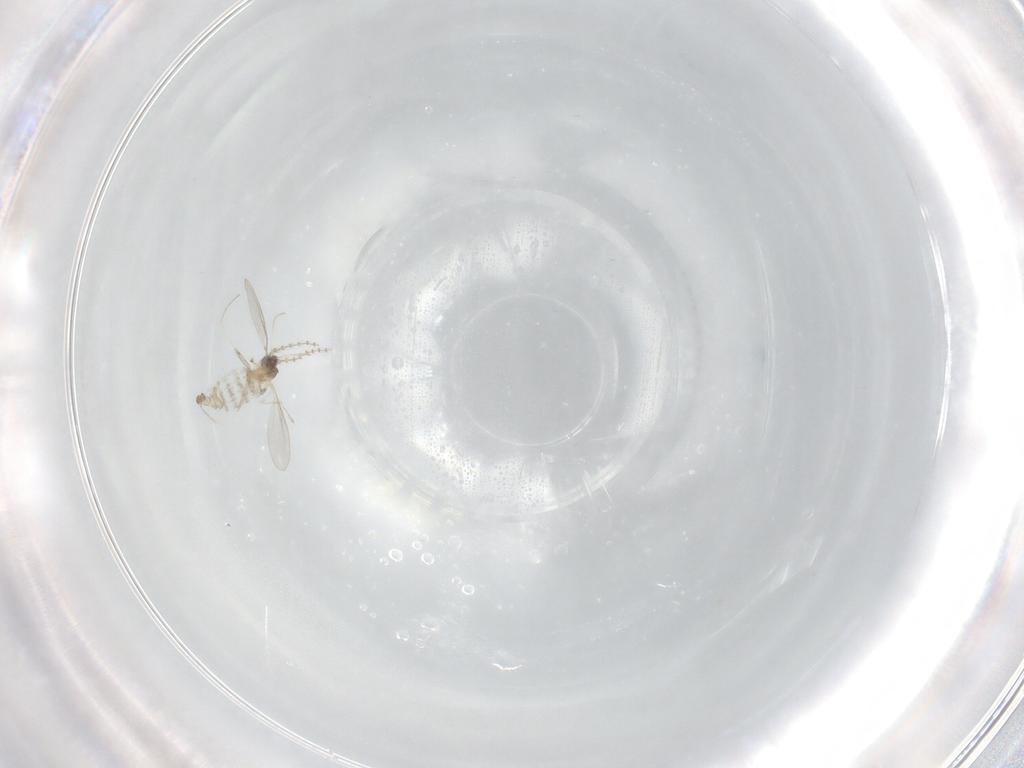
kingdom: Animalia
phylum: Arthropoda
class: Insecta
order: Diptera
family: Cecidomyiidae
